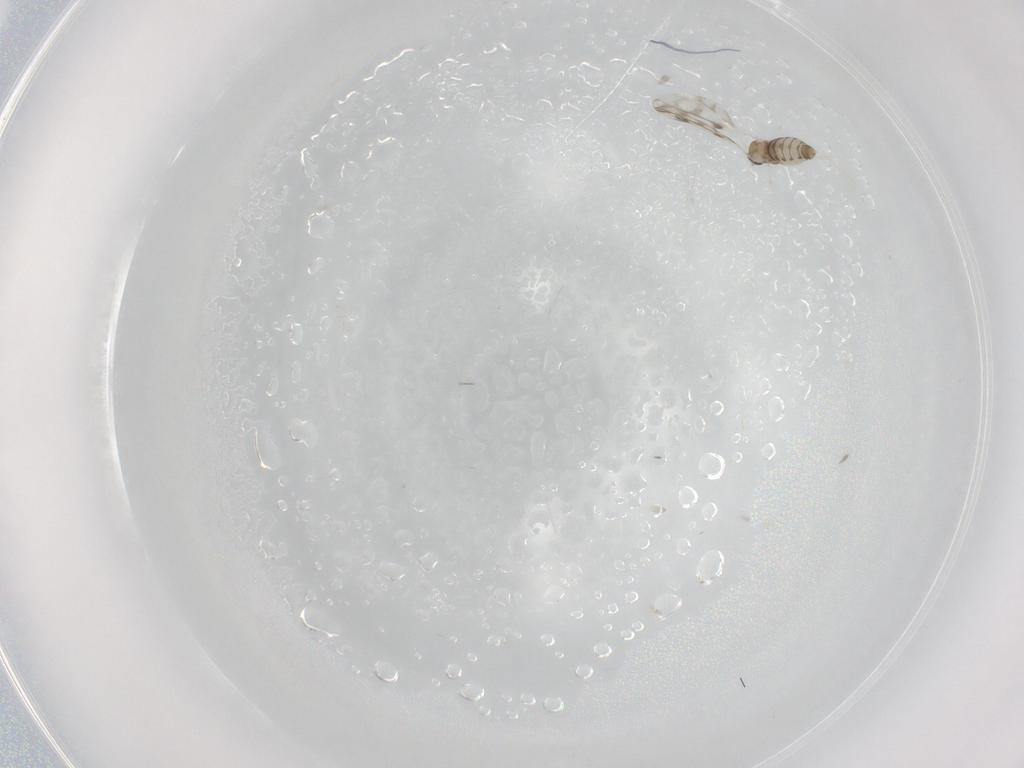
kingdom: Animalia
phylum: Arthropoda
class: Insecta
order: Diptera
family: Cecidomyiidae
